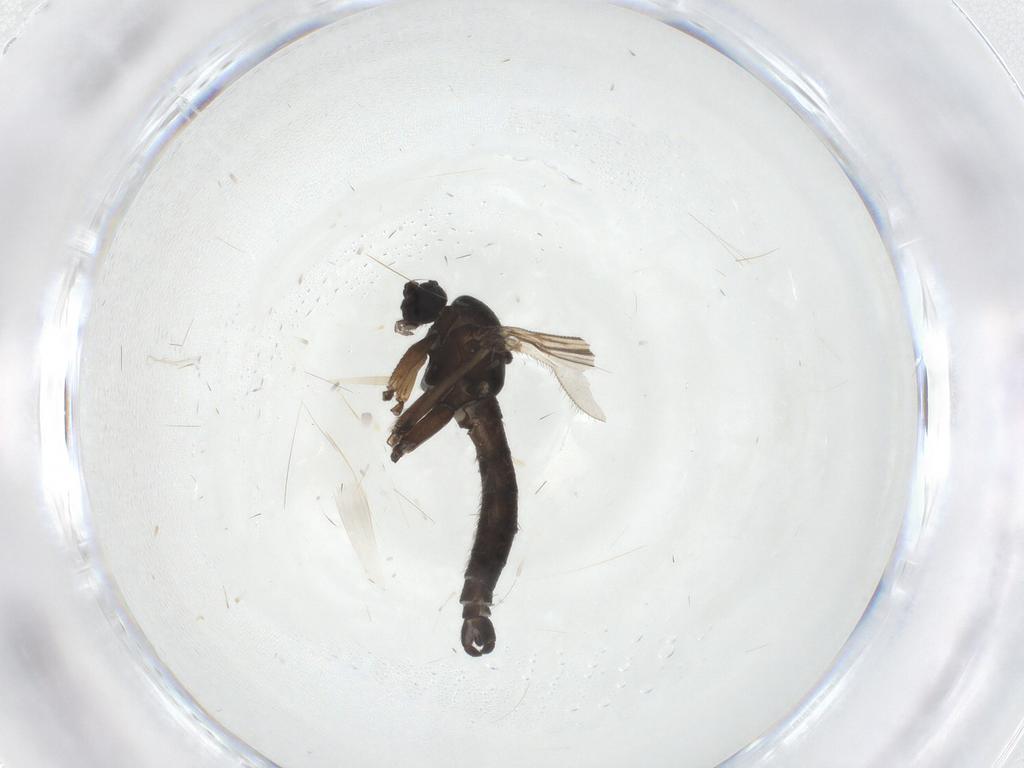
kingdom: Animalia
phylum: Arthropoda
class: Insecta
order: Diptera
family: Sciaridae
